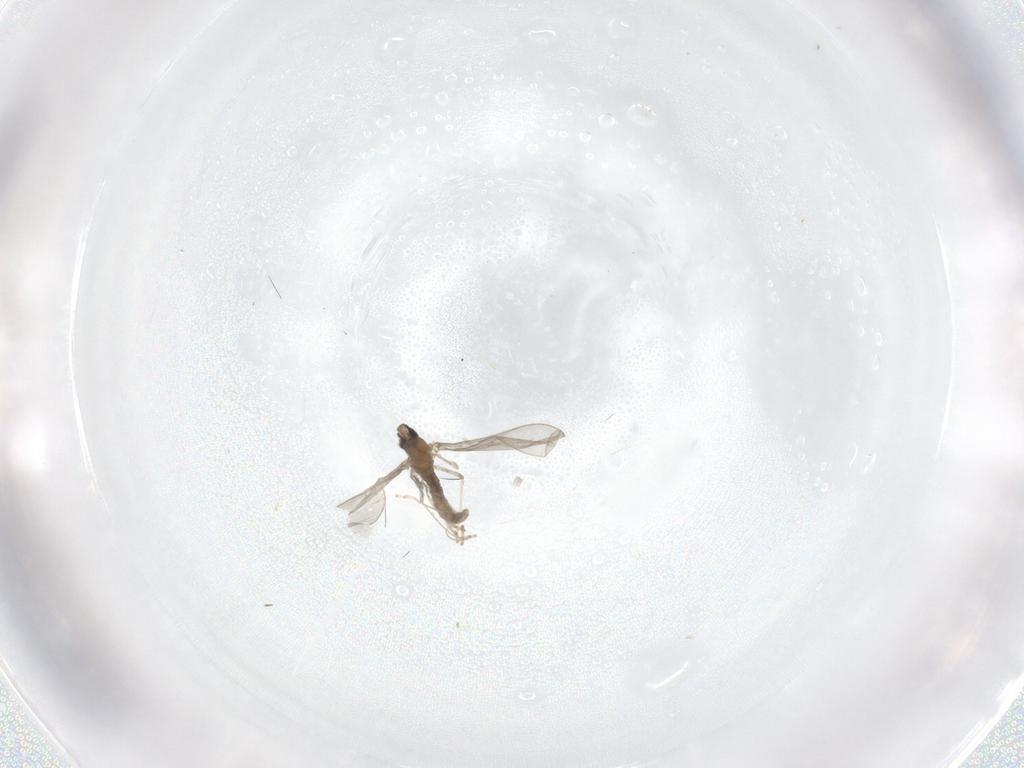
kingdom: Animalia
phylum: Arthropoda
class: Insecta
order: Diptera
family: Cecidomyiidae
